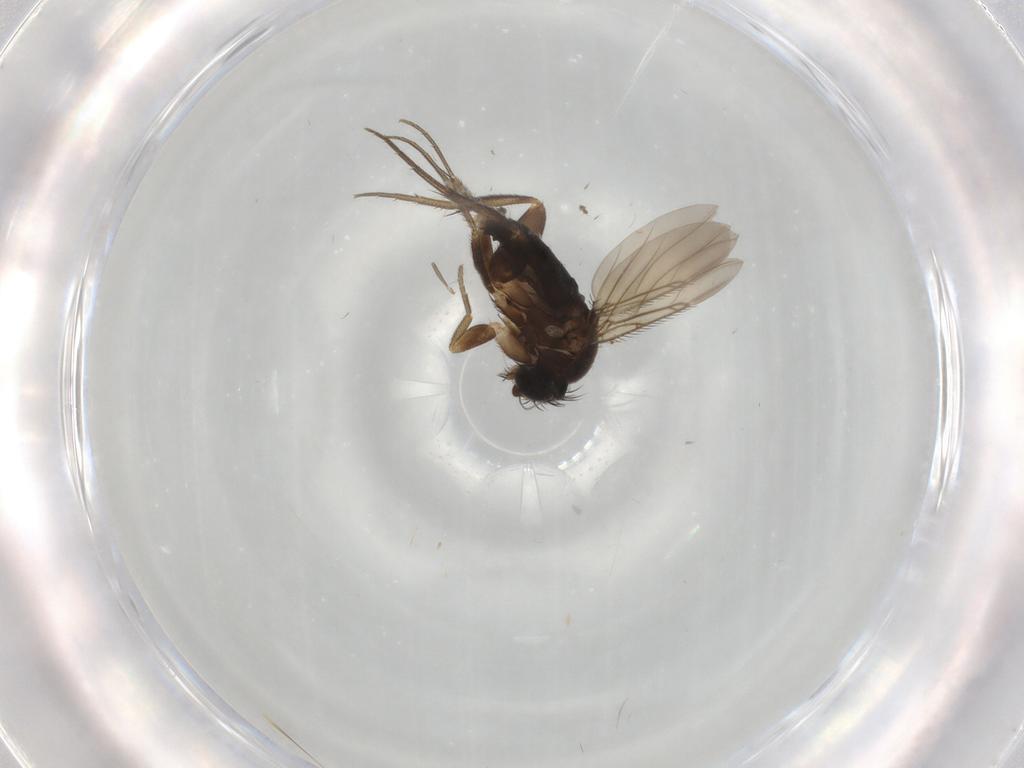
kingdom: Animalia
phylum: Arthropoda
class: Insecta
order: Diptera
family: Phoridae
